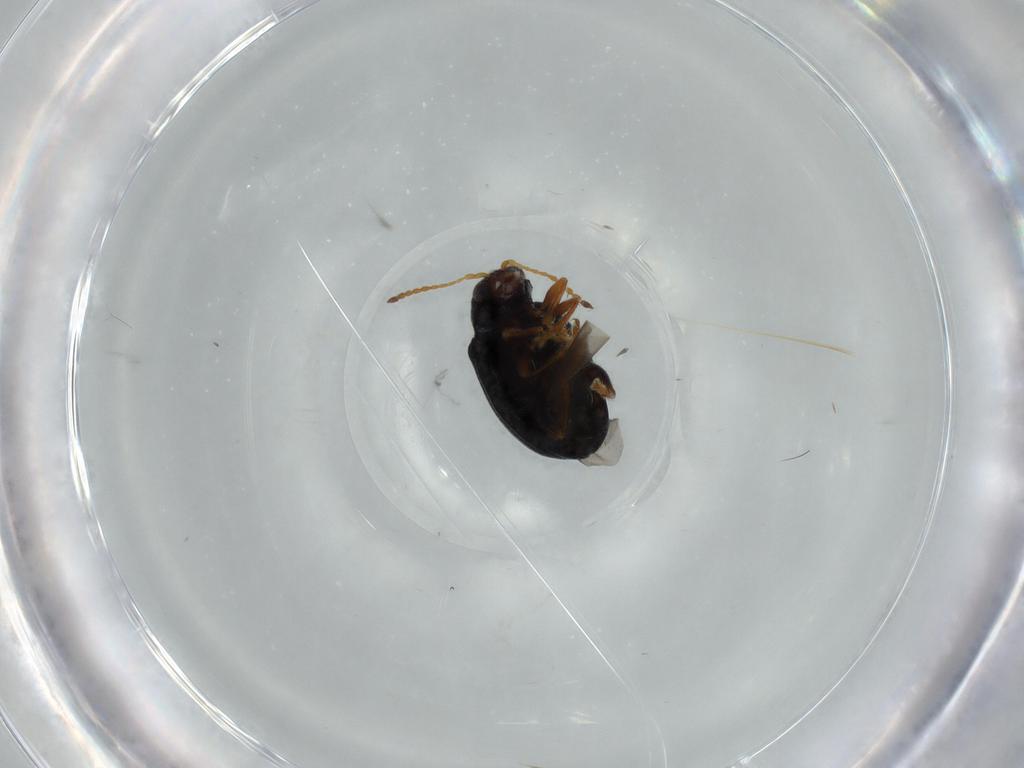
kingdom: Animalia
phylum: Arthropoda
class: Insecta
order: Coleoptera
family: Chrysomelidae
